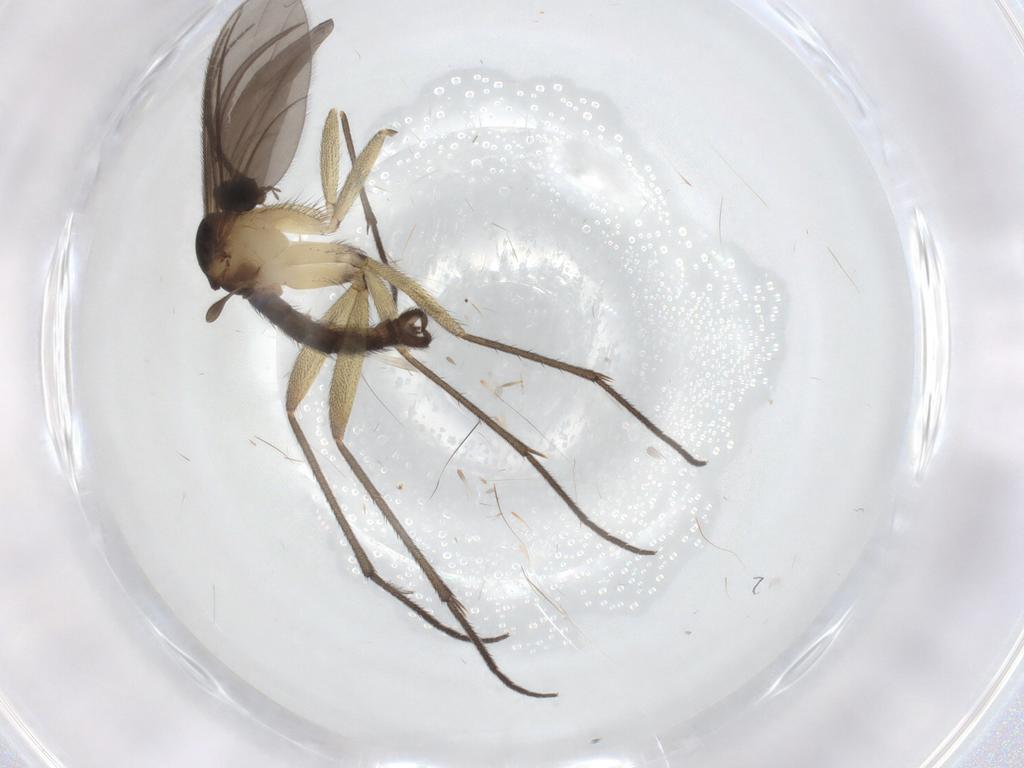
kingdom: Animalia
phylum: Arthropoda
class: Insecta
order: Diptera
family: Sciaridae
